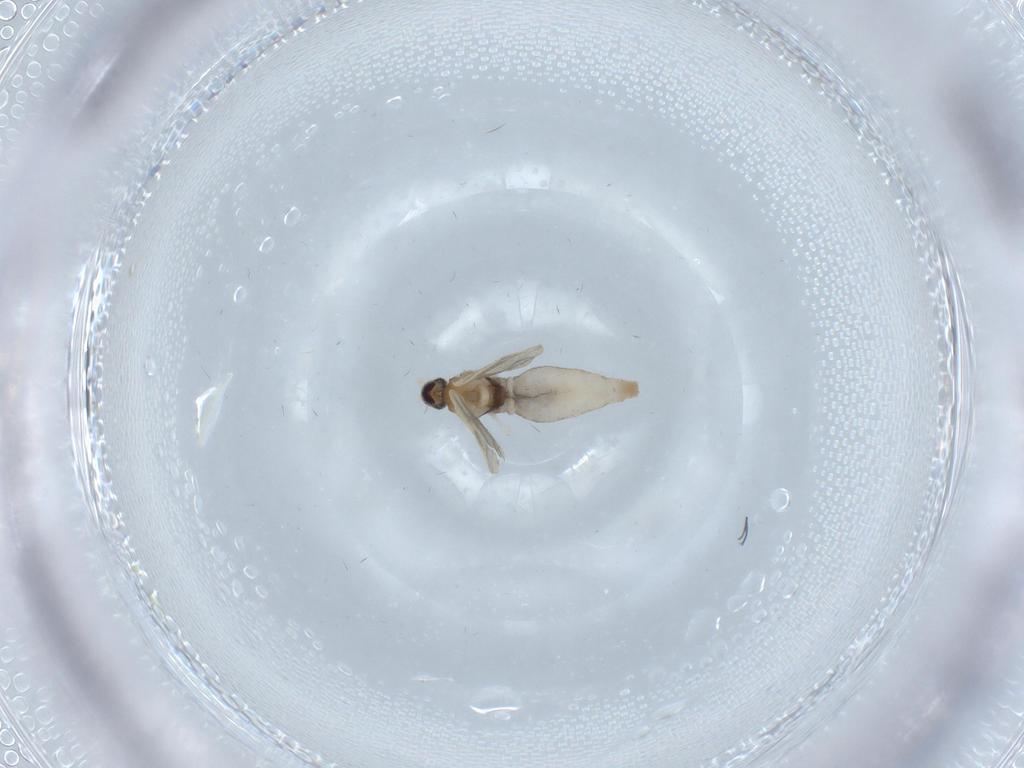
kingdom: Animalia
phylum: Arthropoda
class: Insecta
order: Diptera
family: Cecidomyiidae
